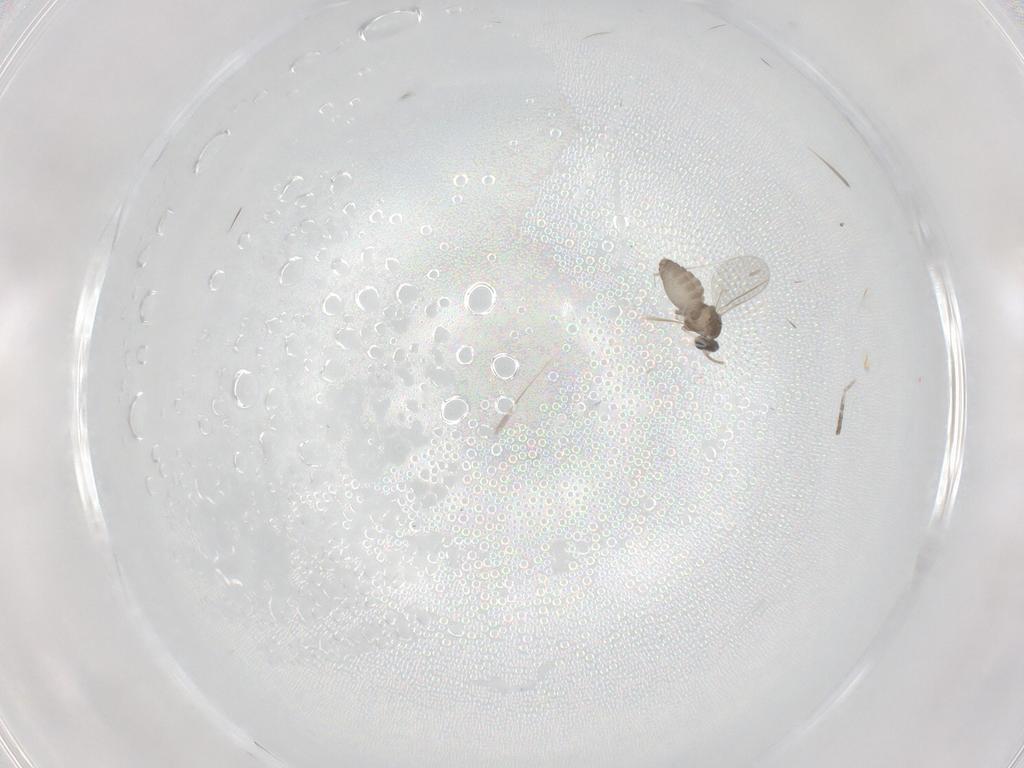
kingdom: Animalia
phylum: Arthropoda
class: Insecta
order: Diptera
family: Cecidomyiidae
